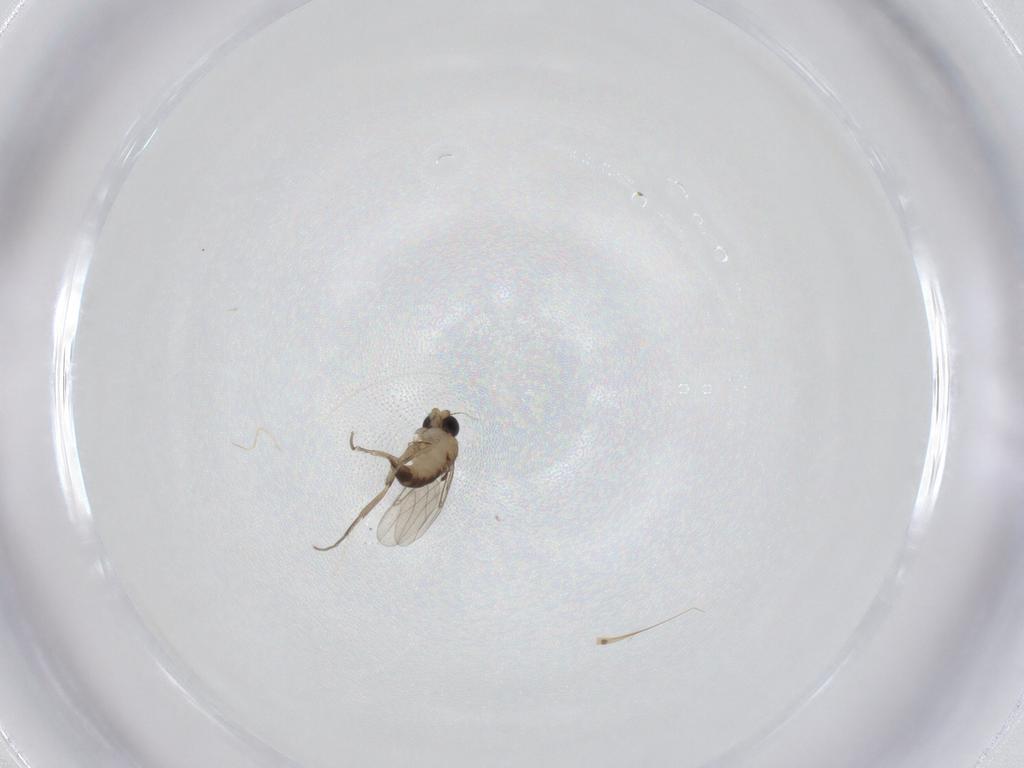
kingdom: Animalia
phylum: Arthropoda
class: Insecta
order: Diptera
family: Phoridae
